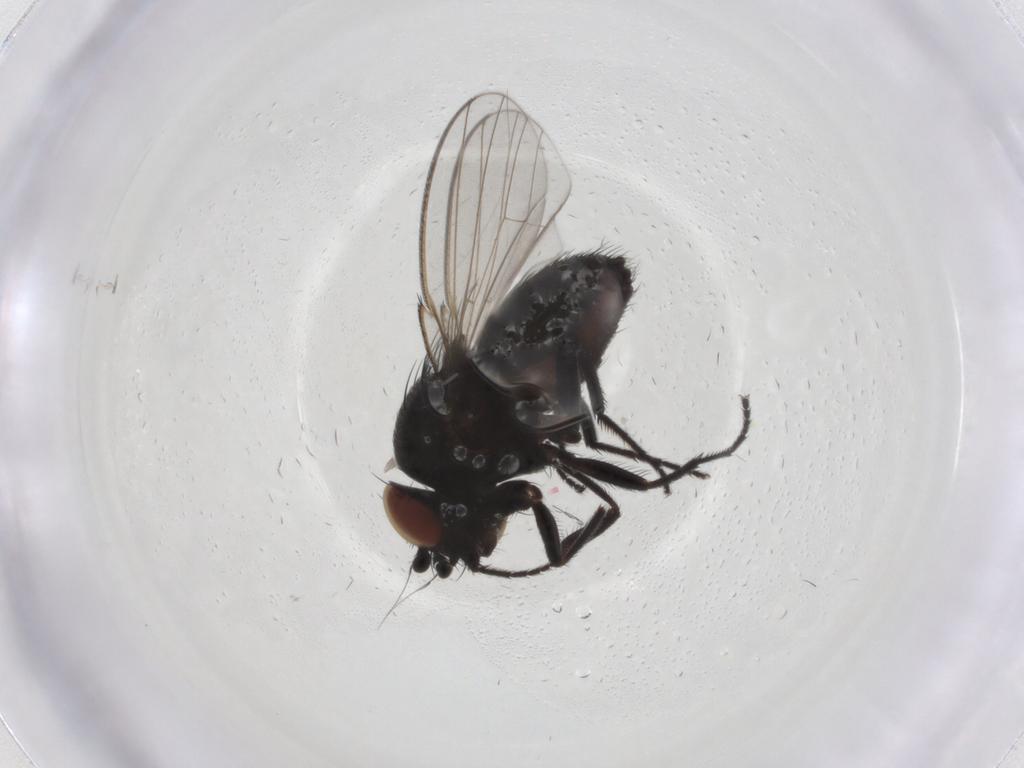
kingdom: Animalia
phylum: Arthropoda
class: Insecta
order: Diptera
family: Milichiidae
